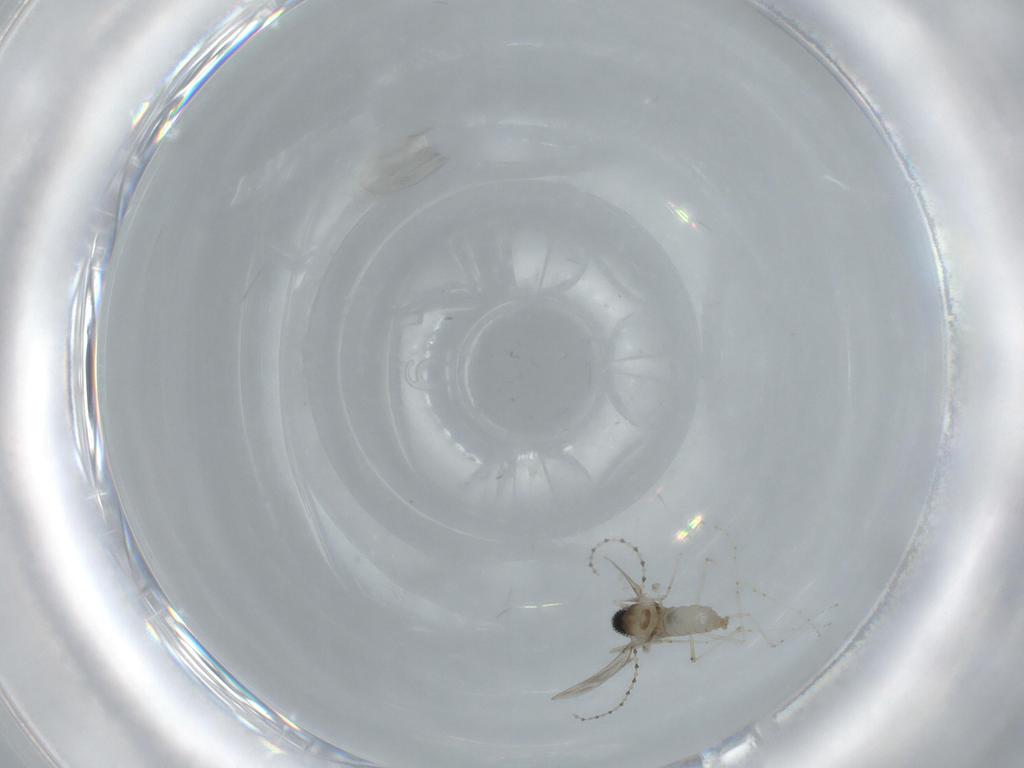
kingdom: Animalia
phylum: Arthropoda
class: Insecta
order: Diptera
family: Cecidomyiidae
